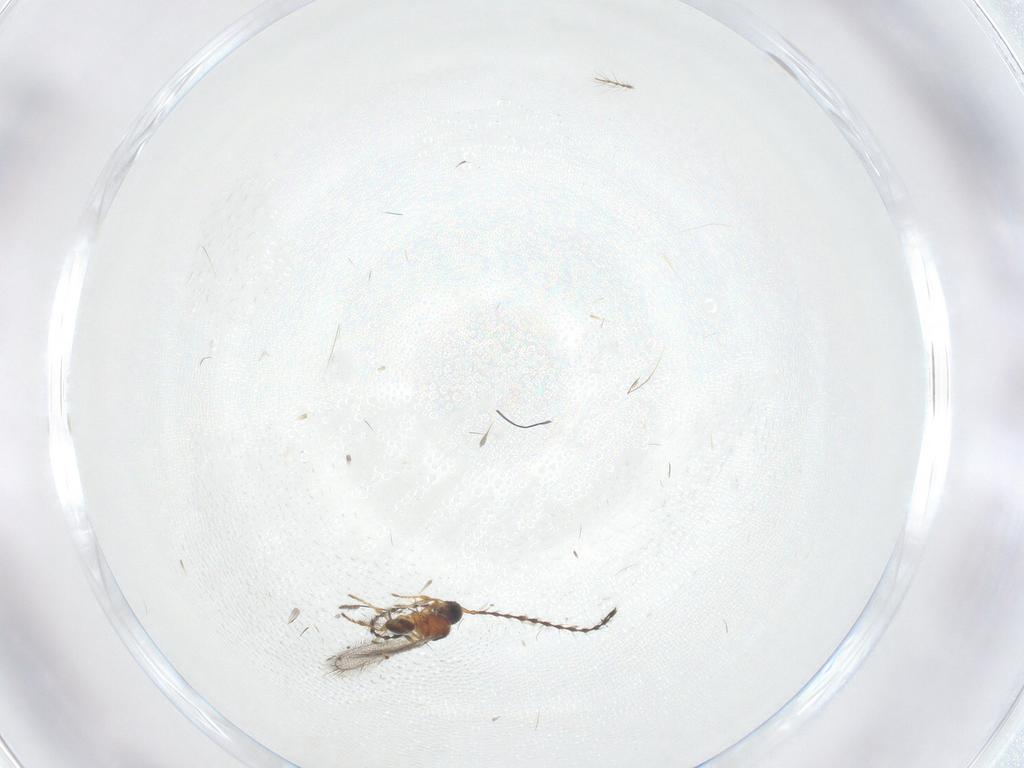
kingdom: Animalia
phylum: Arthropoda
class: Insecta
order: Hymenoptera
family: Diapriidae
